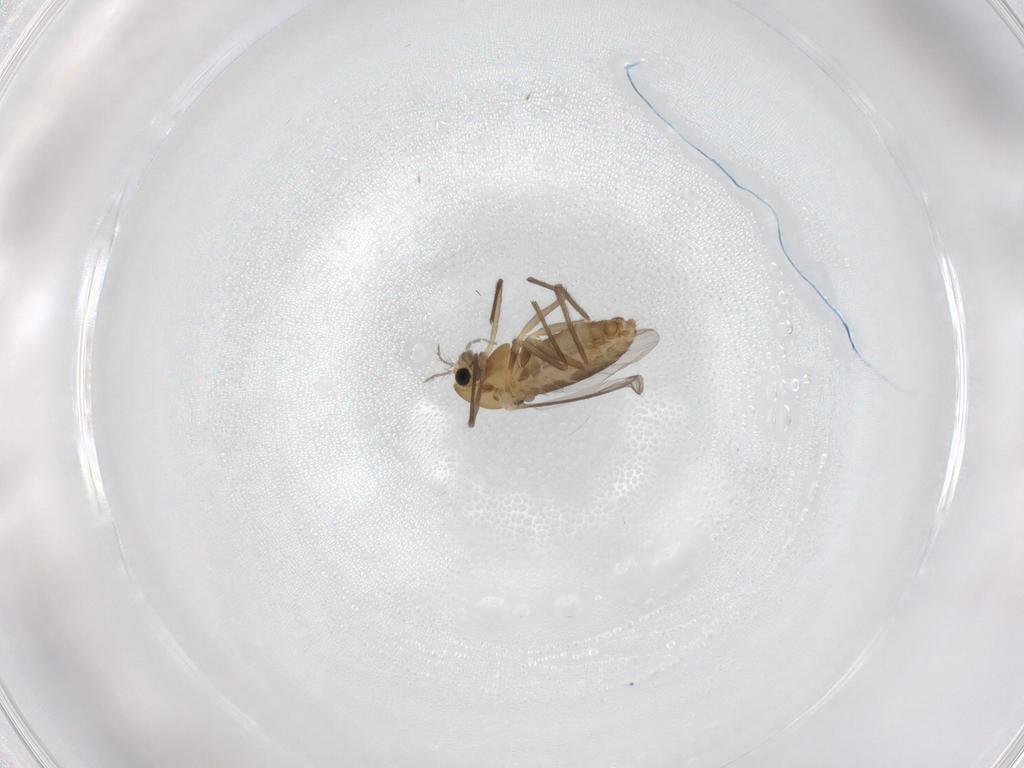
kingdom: Animalia
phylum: Arthropoda
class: Insecta
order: Diptera
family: Chironomidae
